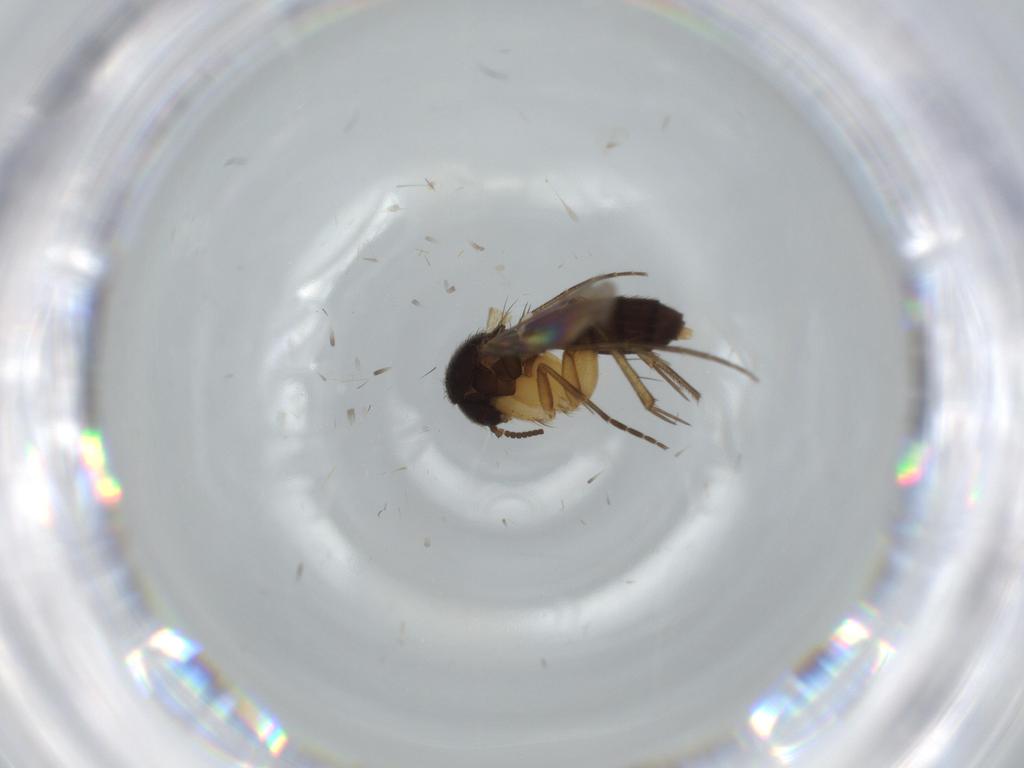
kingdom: Animalia
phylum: Arthropoda
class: Insecta
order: Diptera
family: Mycetophilidae
